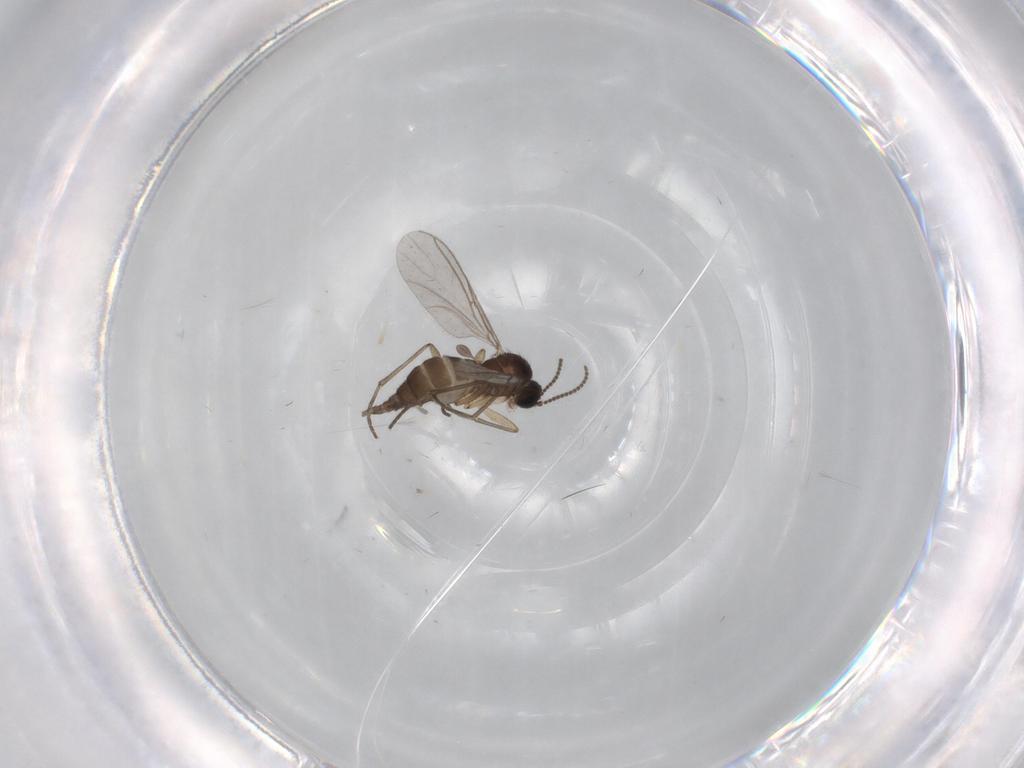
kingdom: Animalia
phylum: Arthropoda
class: Insecta
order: Diptera
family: Sciaridae
